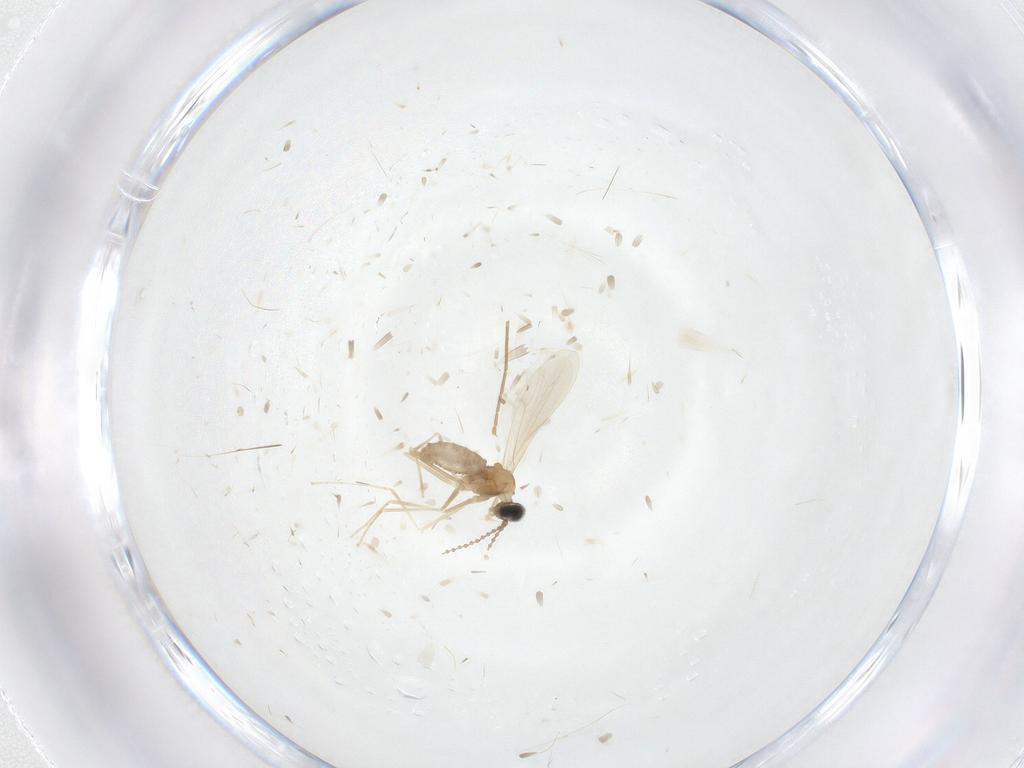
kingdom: Animalia
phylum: Arthropoda
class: Insecta
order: Diptera
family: Cecidomyiidae
